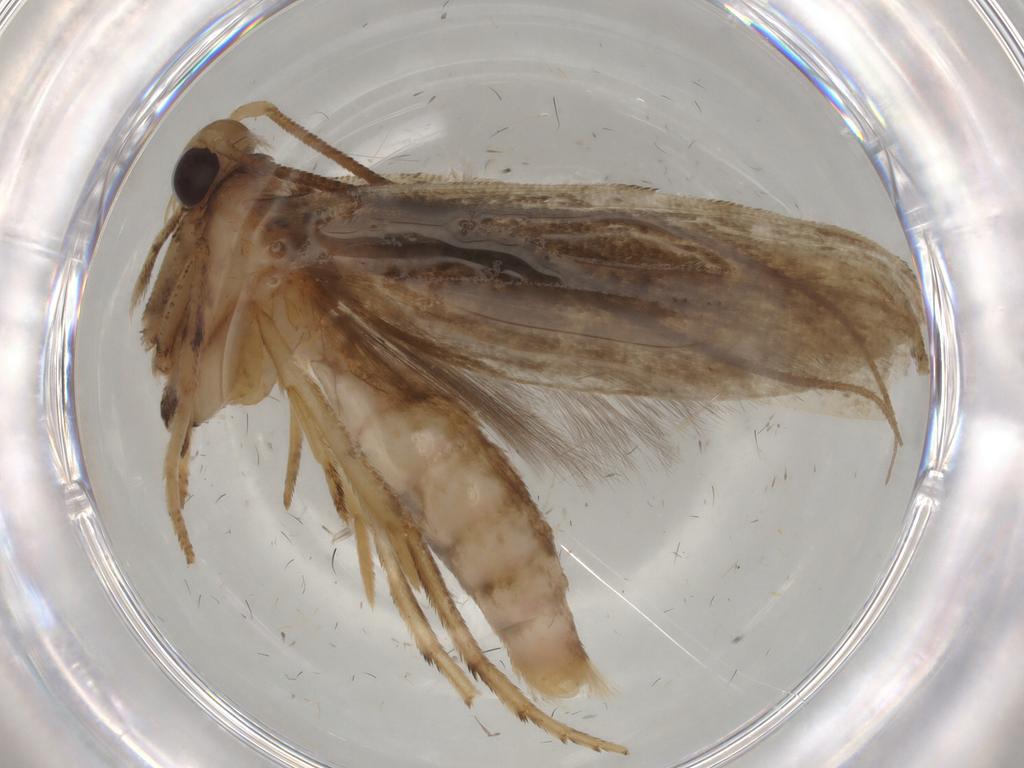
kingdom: Animalia
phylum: Arthropoda
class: Insecta
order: Lepidoptera
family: Yponomeutidae
